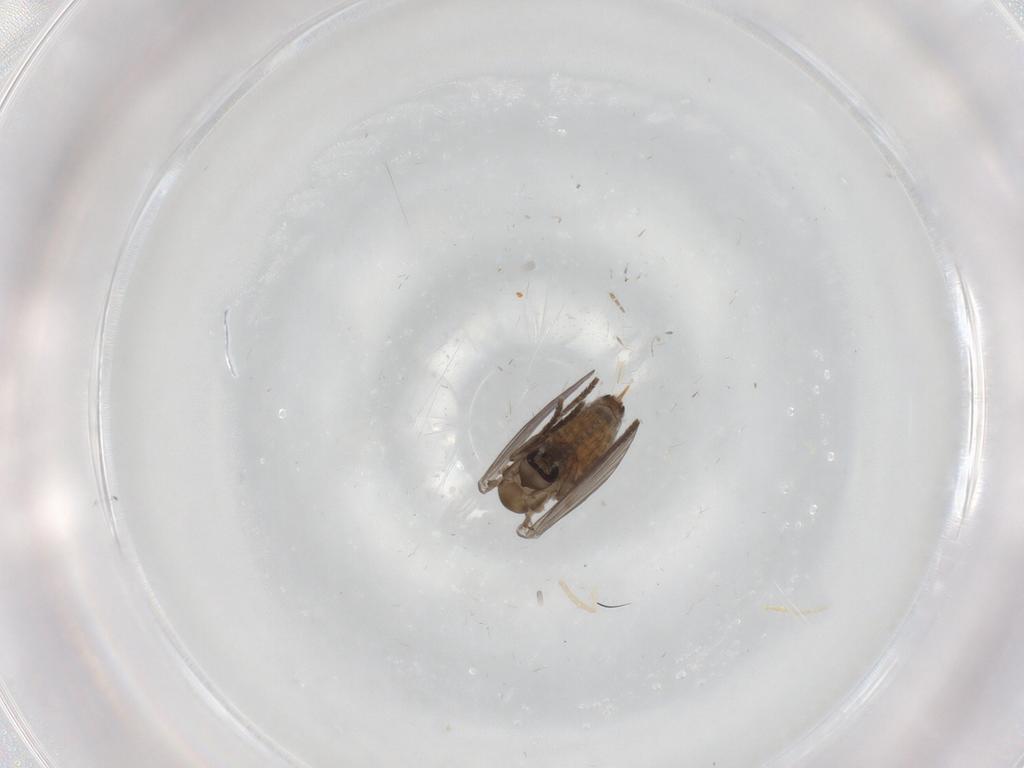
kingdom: Animalia
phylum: Arthropoda
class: Insecta
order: Diptera
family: Psychodidae
